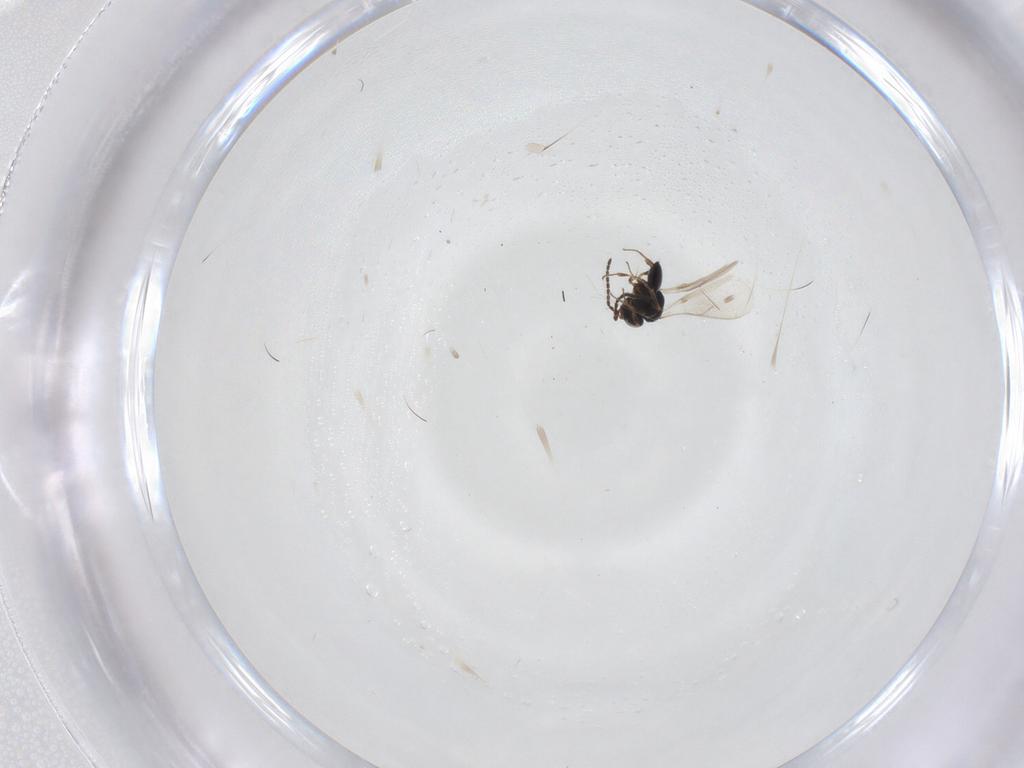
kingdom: Animalia
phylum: Arthropoda
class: Insecta
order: Hymenoptera
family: Scelionidae
